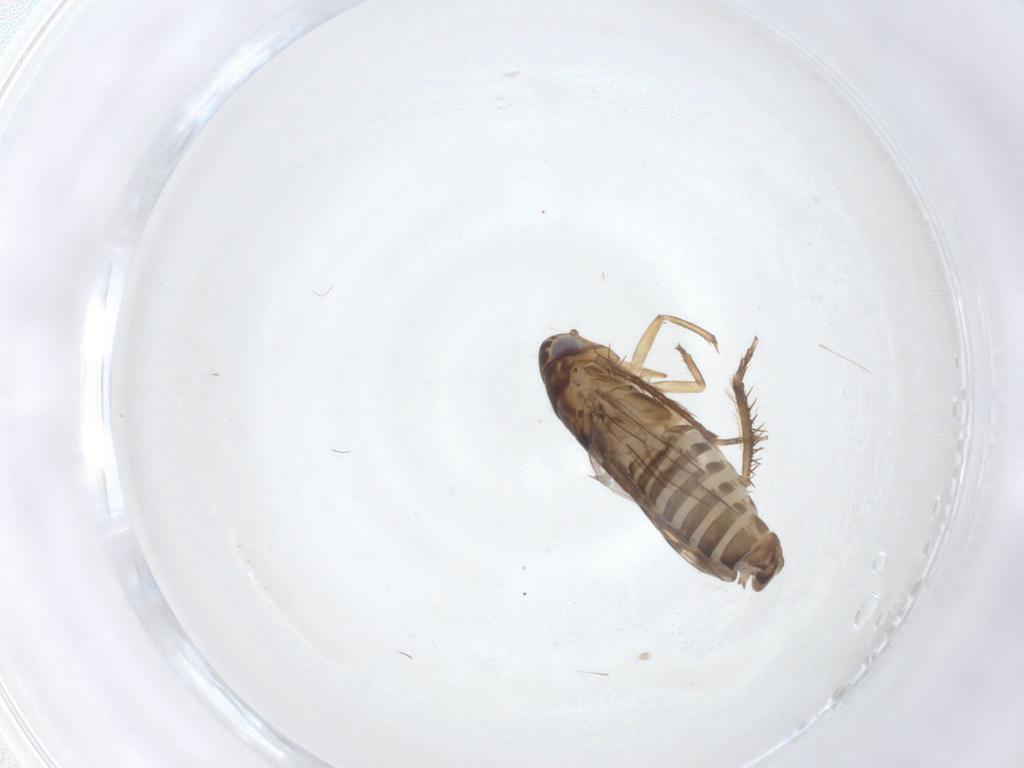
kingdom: Animalia
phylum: Arthropoda
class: Insecta
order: Hemiptera
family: Cicadellidae
